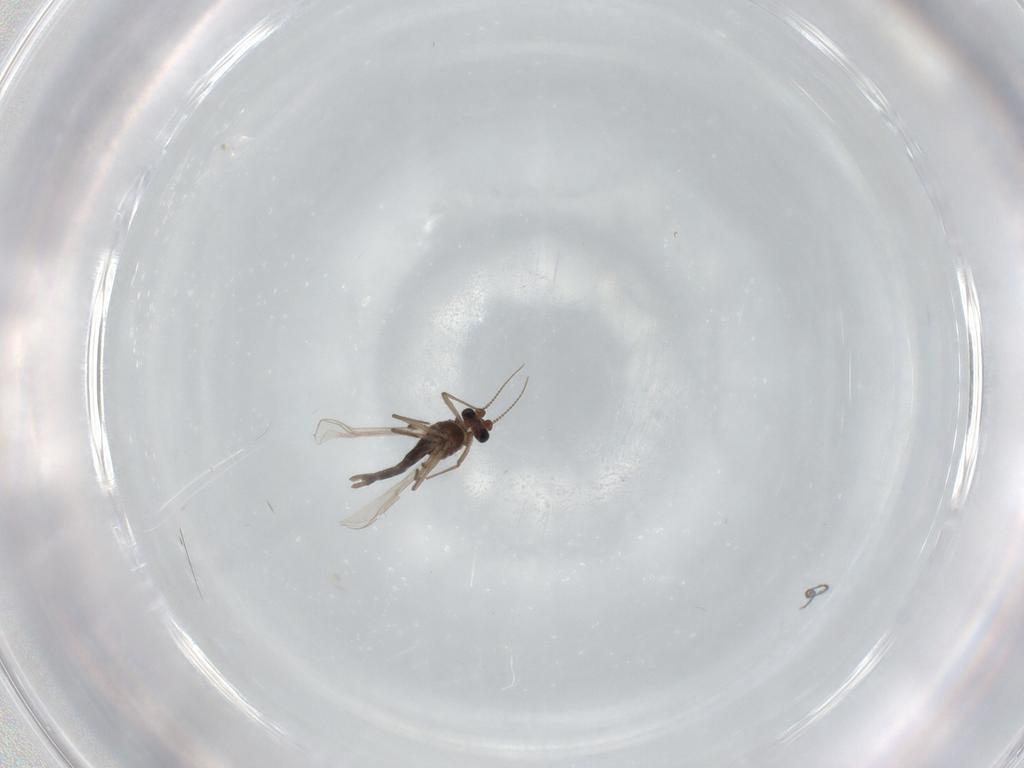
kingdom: Animalia
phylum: Arthropoda
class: Insecta
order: Diptera
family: Chironomidae
